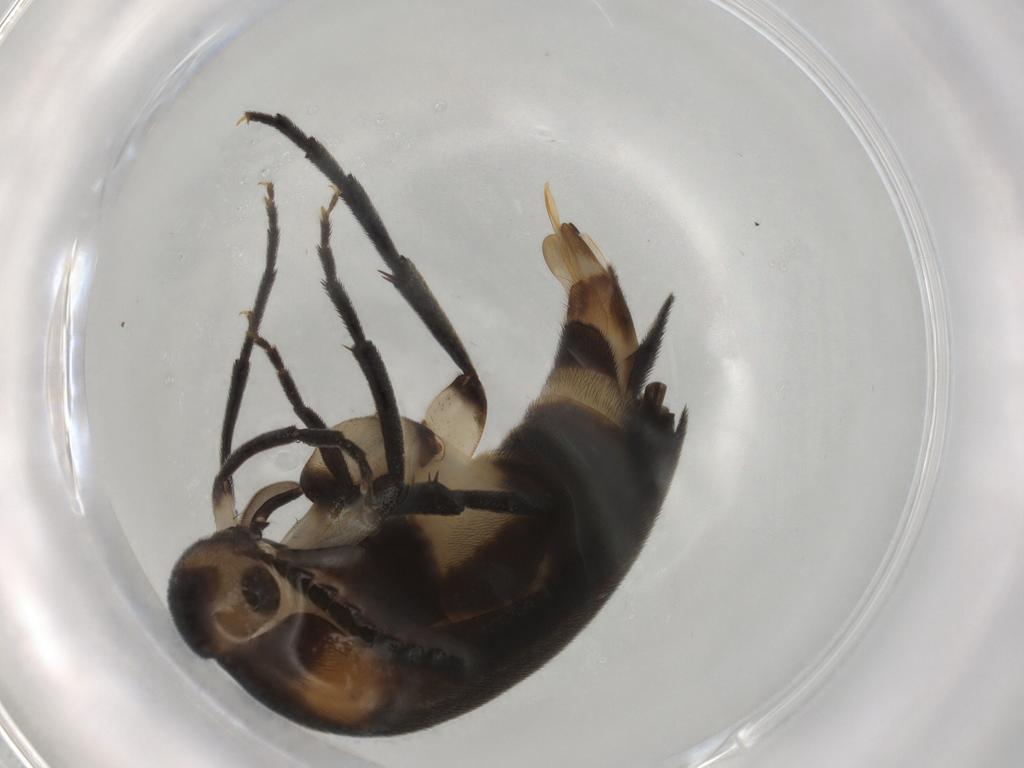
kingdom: Animalia
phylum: Arthropoda
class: Insecta
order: Coleoptera
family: Mordellidae
